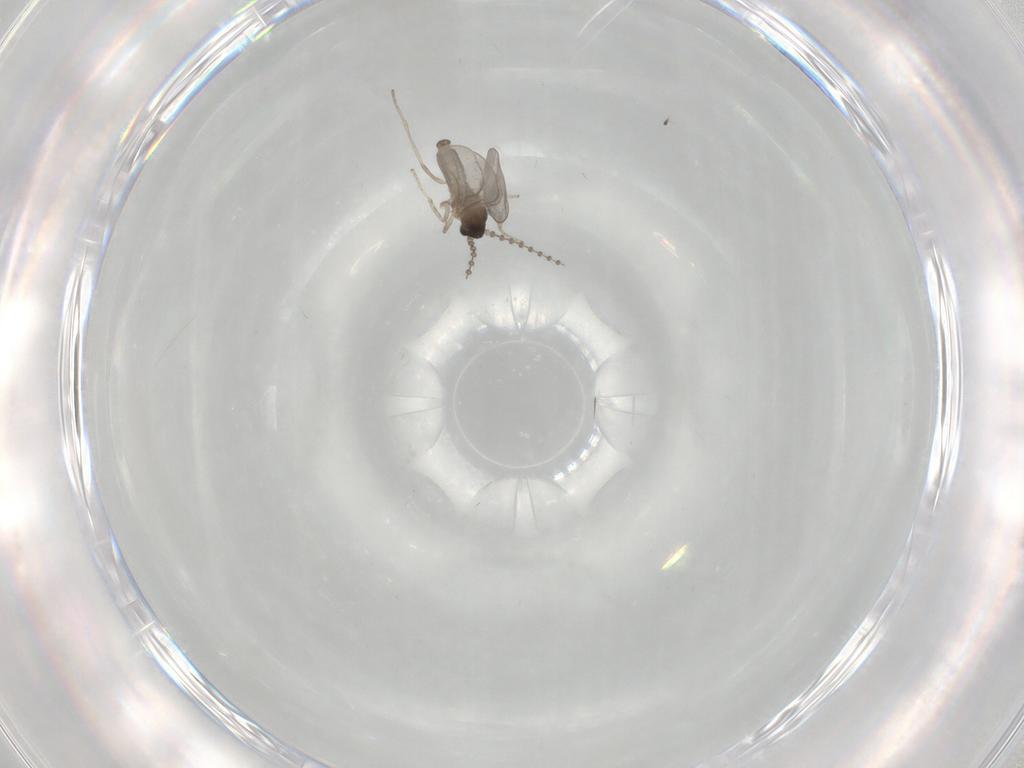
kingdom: Animalia
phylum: Arthropoda
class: Insecta
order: Diptera
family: Cecidomyiidae
